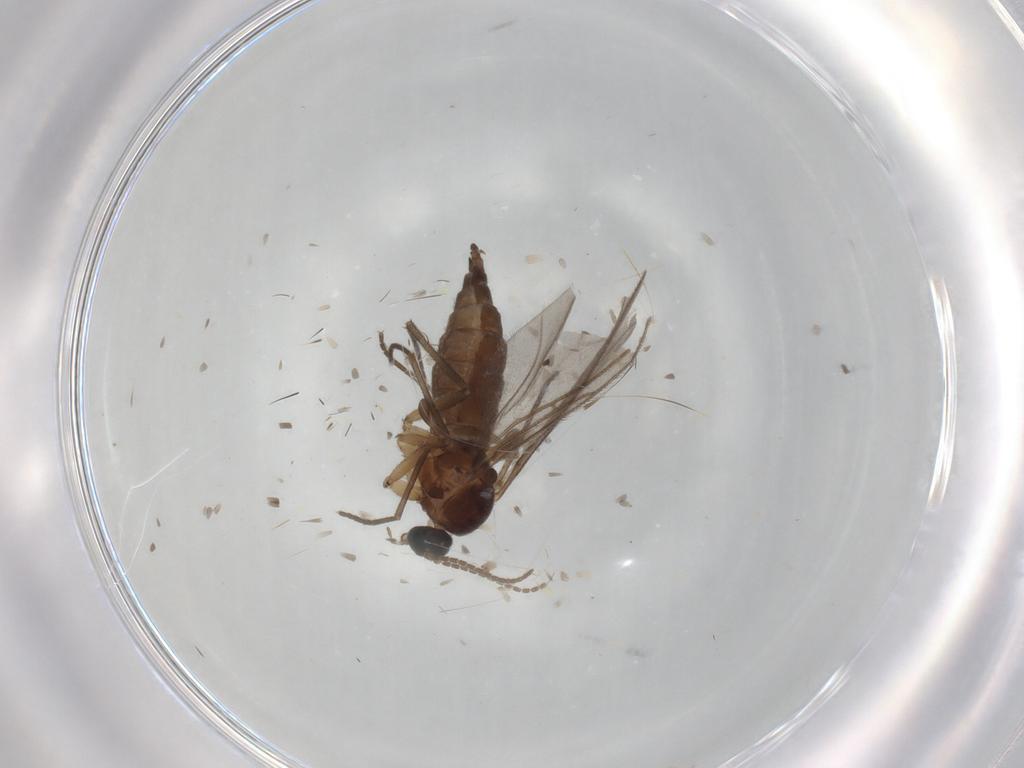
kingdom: Animalia
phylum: Arthropoda
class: Insecta
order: Diptera
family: Sciaridae
